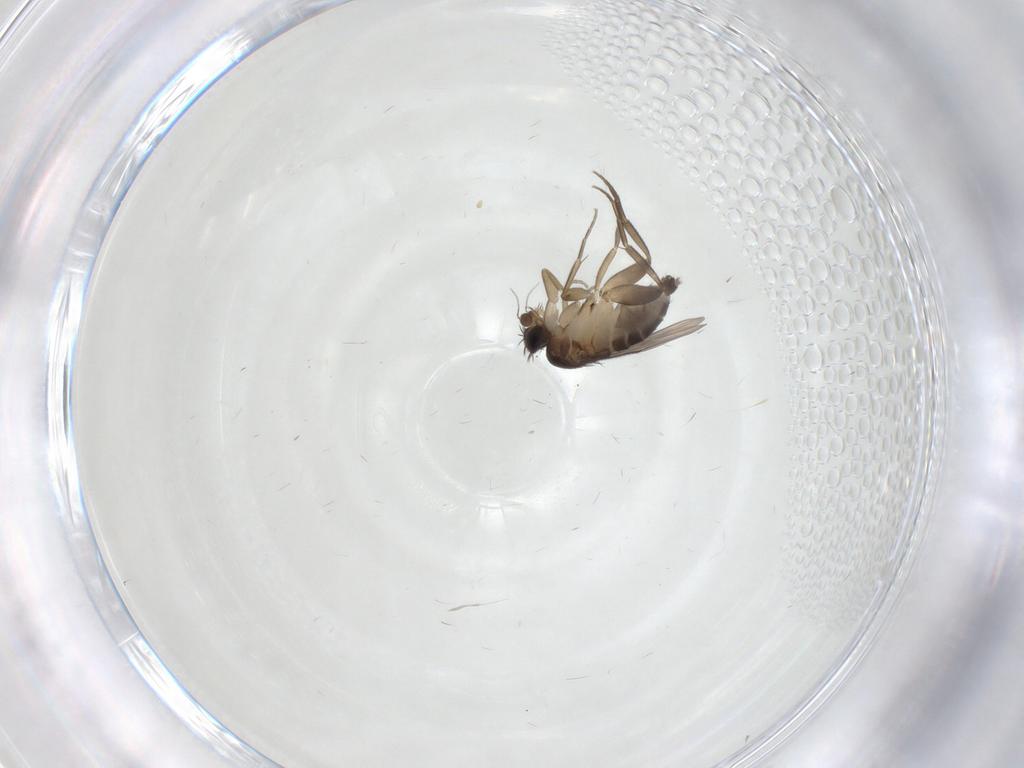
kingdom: Animalia
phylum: Arthropoda
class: Insecta
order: Diptera
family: Phoridae
